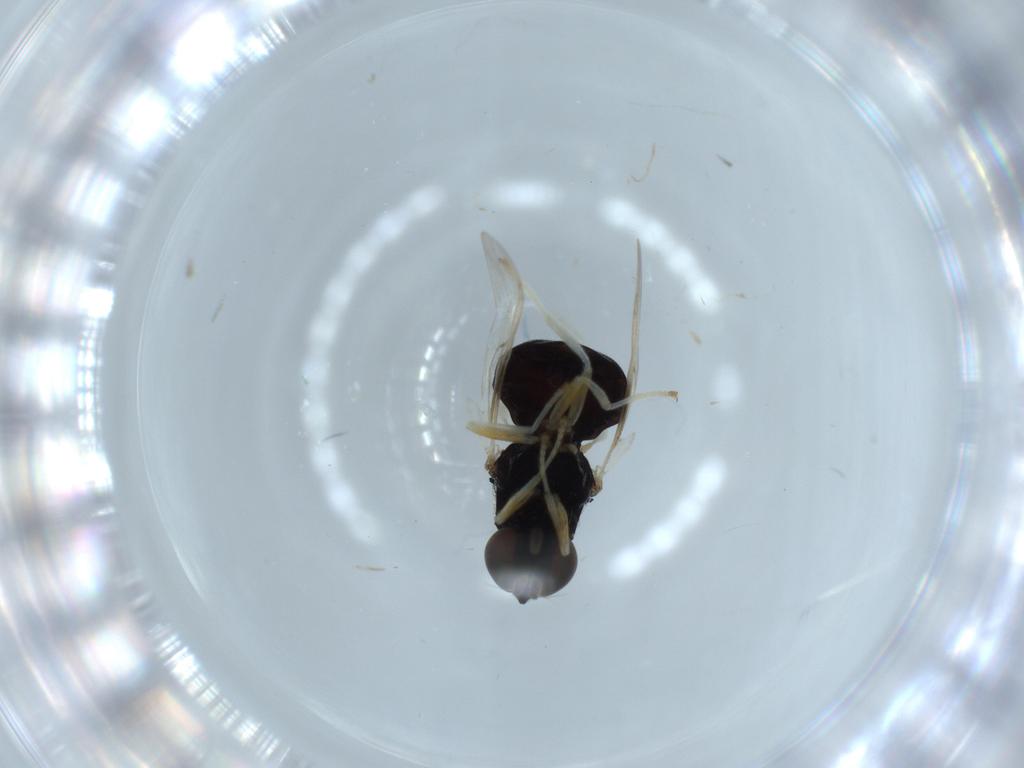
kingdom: Animalia
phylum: Arthropoda
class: Insecta
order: Diptera
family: Stratiomyidae
